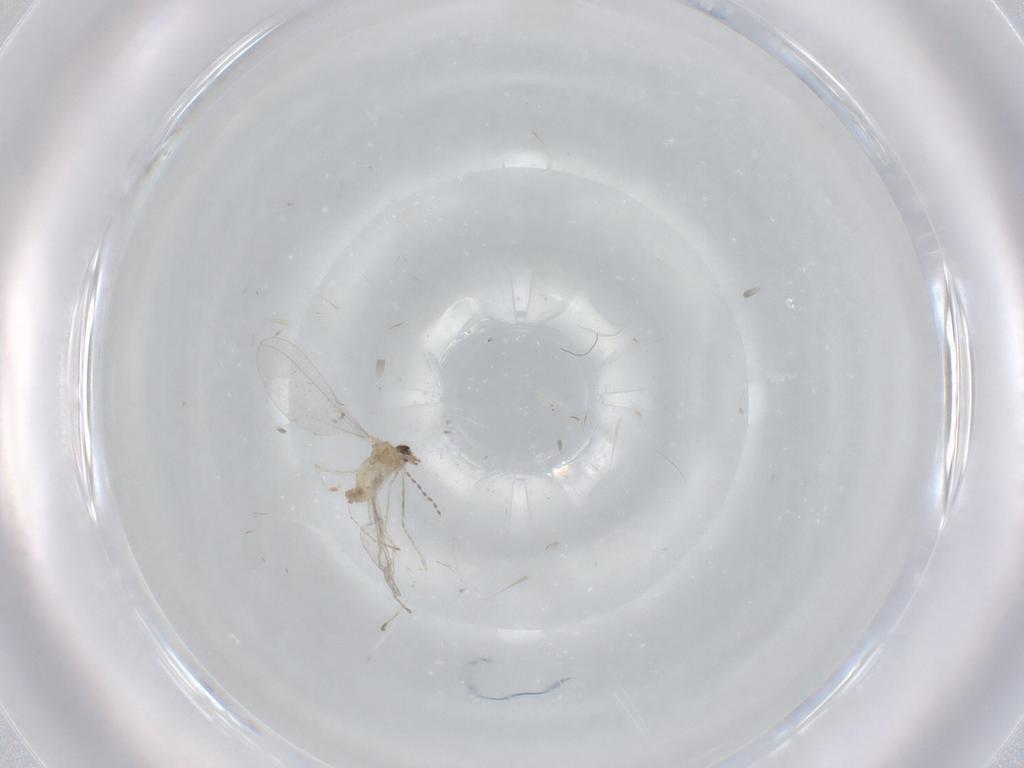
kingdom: Animalia
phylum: Arthropoda
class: Insecta
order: Diptera
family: Cecidomyiidae
